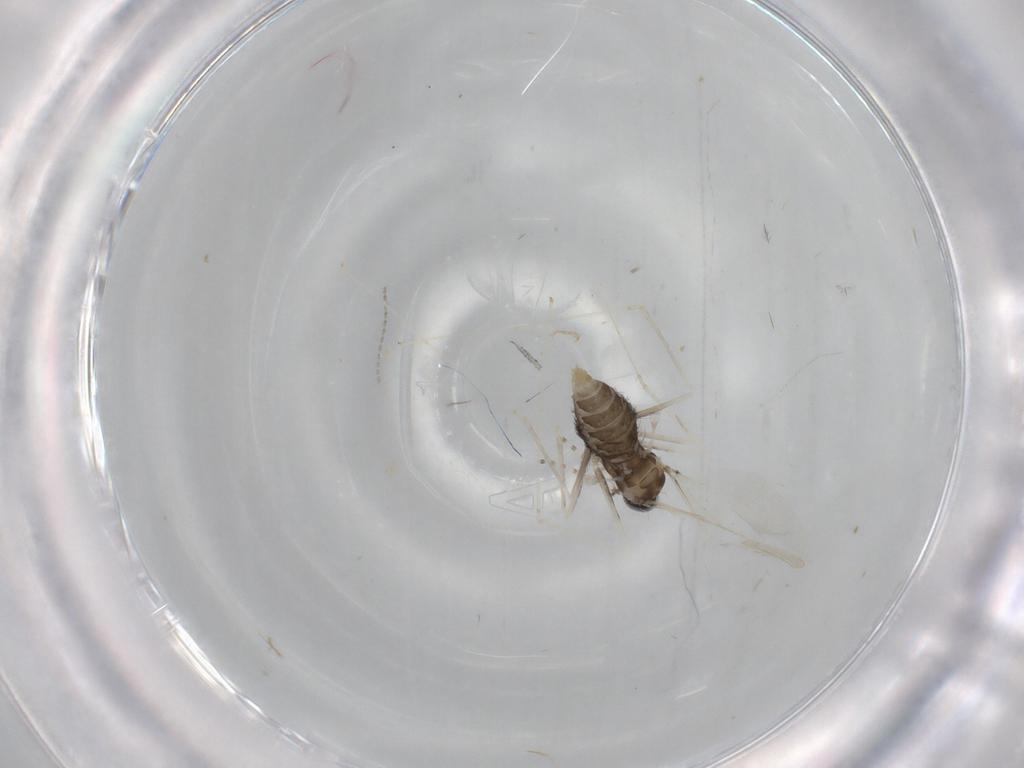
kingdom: Animalia
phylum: Arthropoda
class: Insecta
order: Diptera
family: Cecidomyiidae
